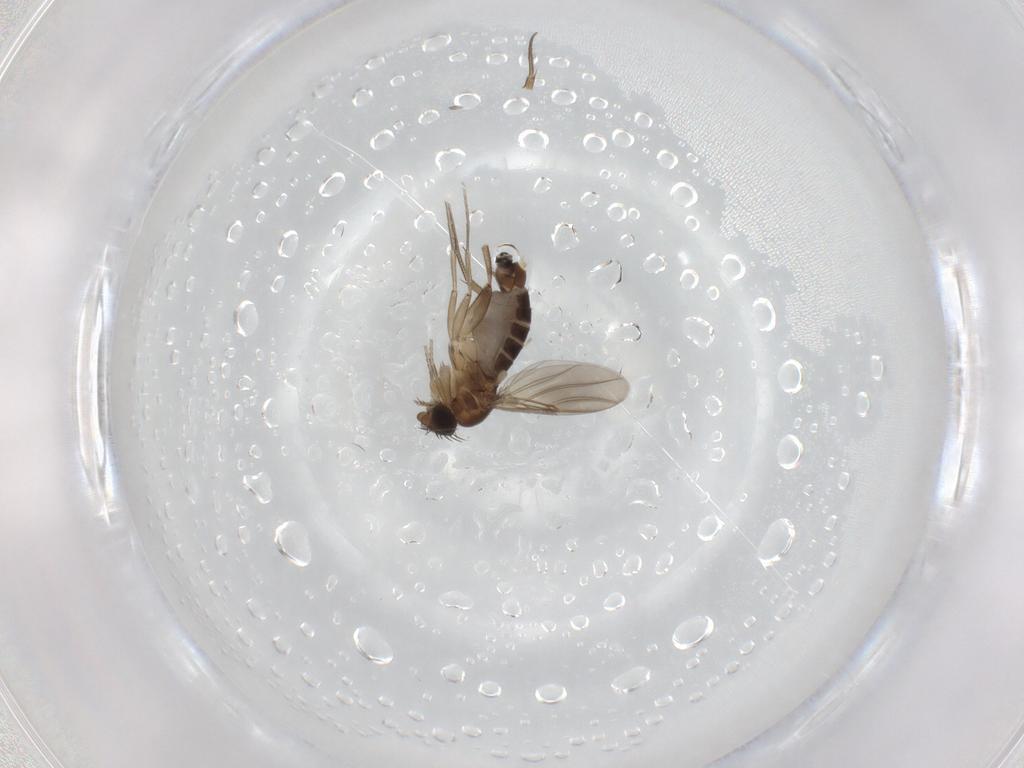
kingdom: Animalia
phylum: Arthropoda
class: Insecta
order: Diptera
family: Phoridae
